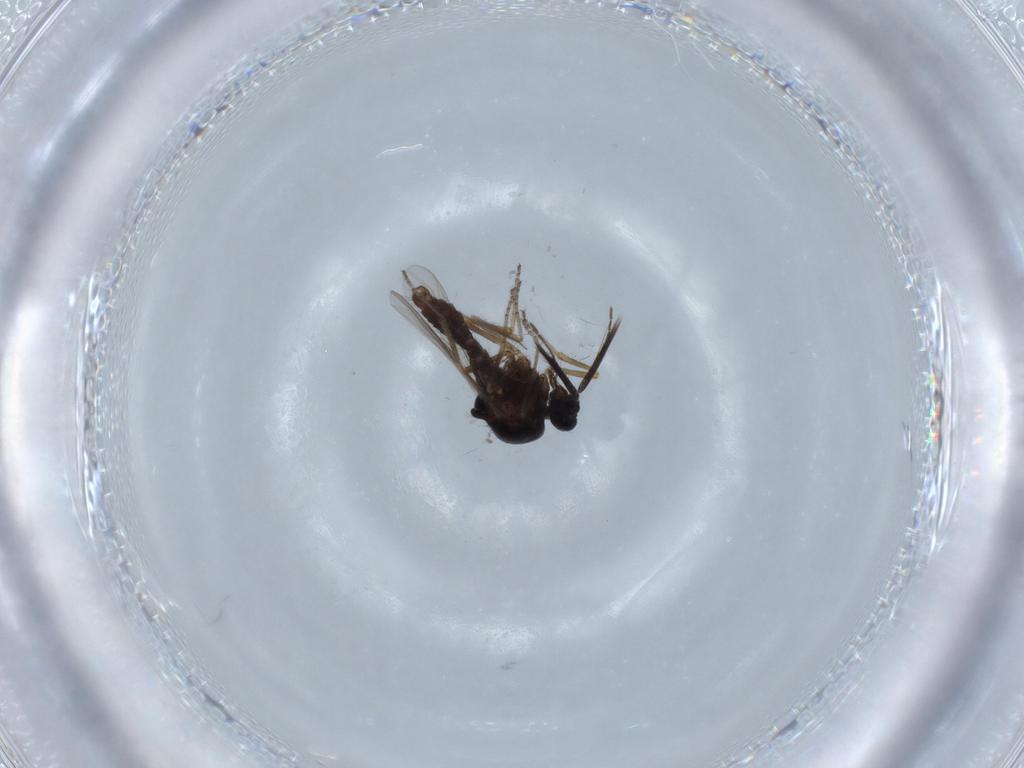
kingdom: Animalia
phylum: Arthropoda
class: Insecta
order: Diptera
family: Ceratopogonidae
